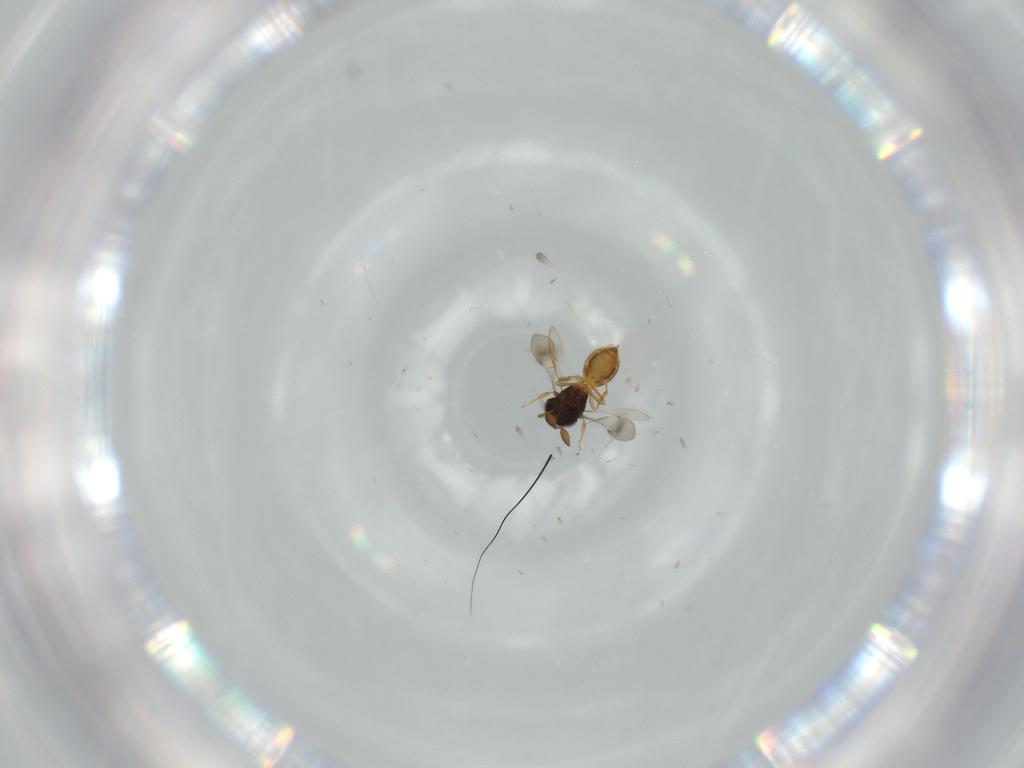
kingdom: Animalia
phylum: Arthropoda
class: Insecta
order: Hymenoptera
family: Scelionidae
